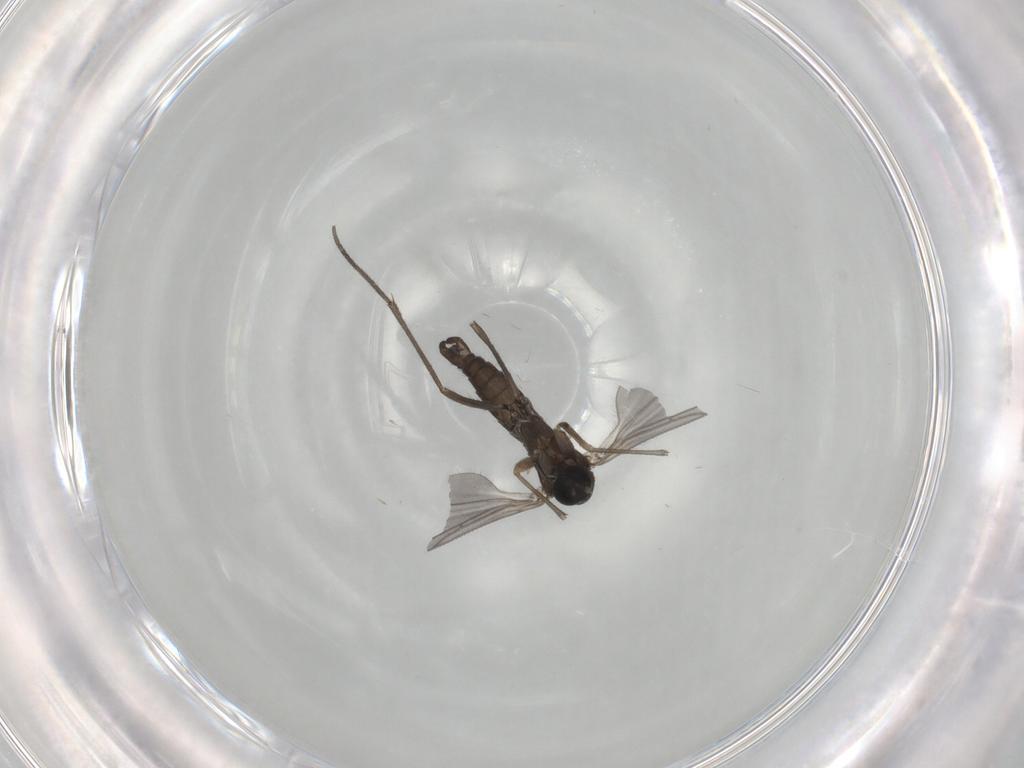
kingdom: Animalia
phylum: Arthropoda
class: Insecta
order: Diptera
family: Sciaridae
